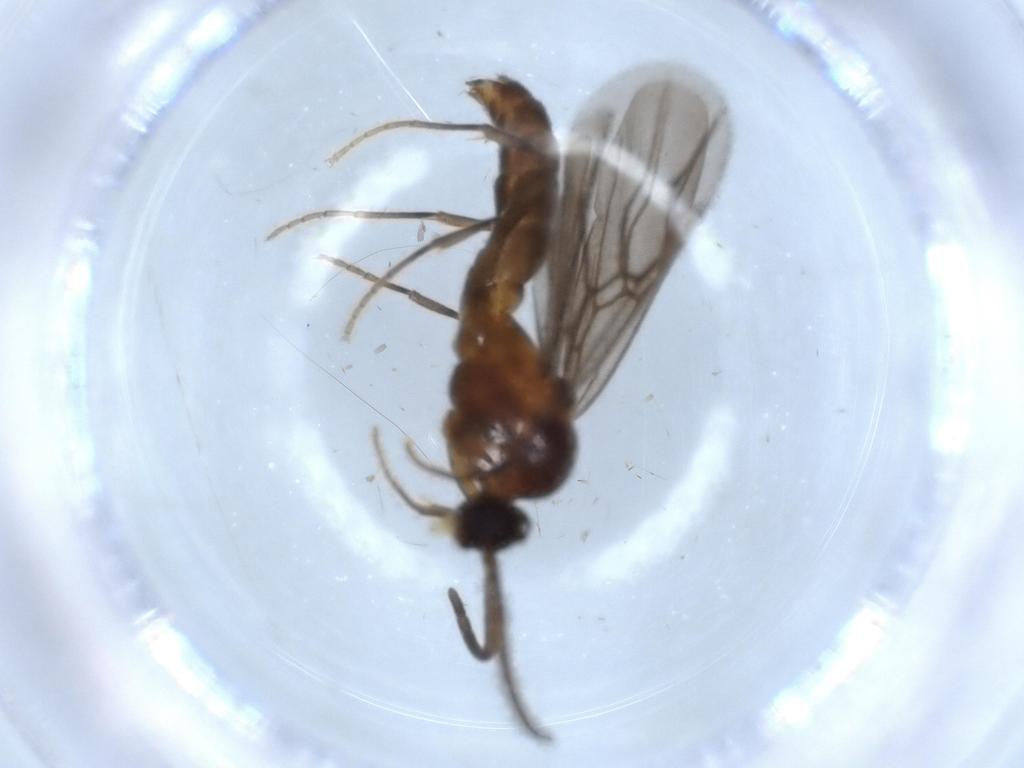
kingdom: Animalia
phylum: Arthropoda
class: Insecta
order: Hymenoptera
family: Formicidae
